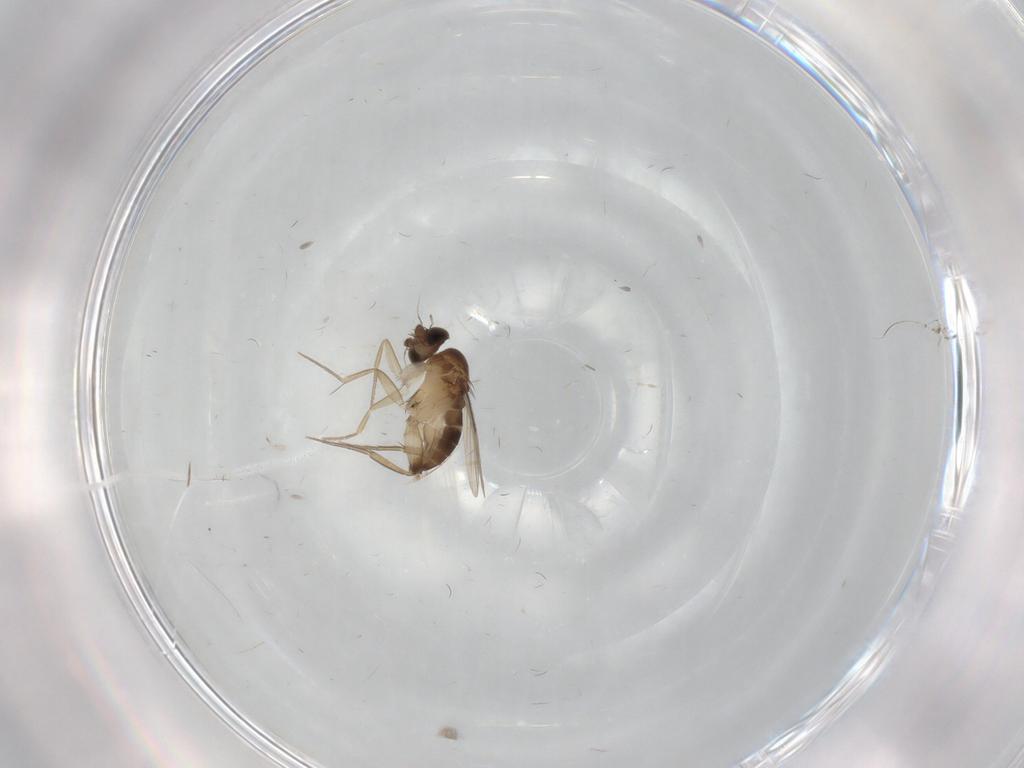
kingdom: Animalia
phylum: Arthropoda
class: Insecta
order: Diptera
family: Phoridae
